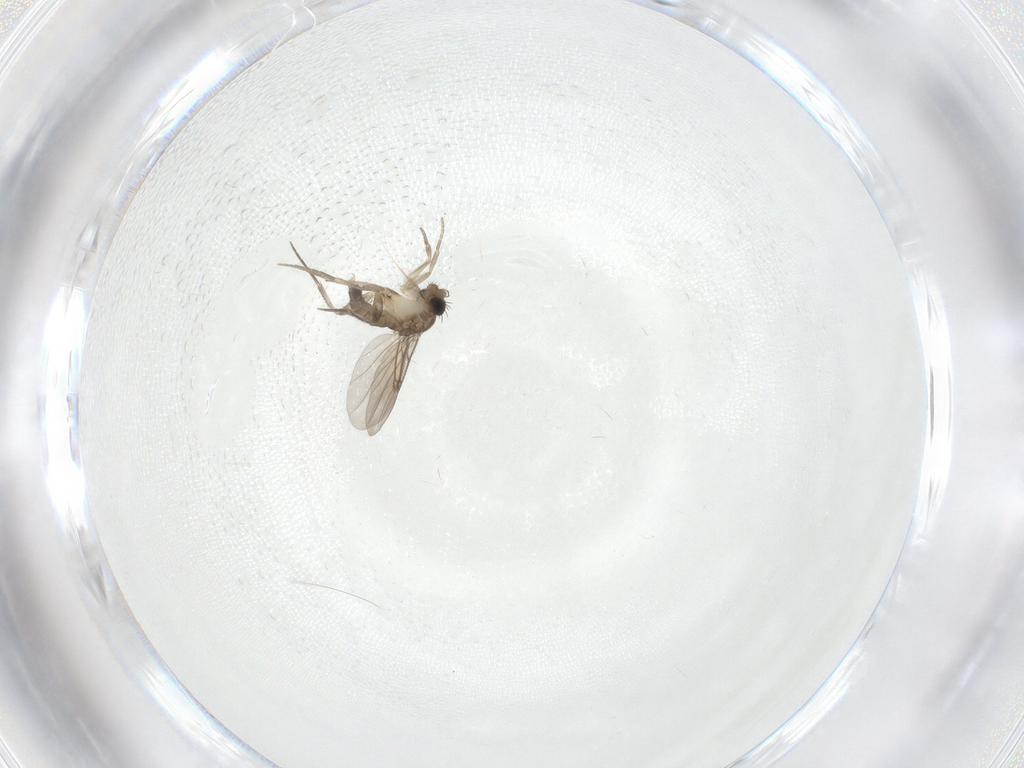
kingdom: Animalia
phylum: Arthropoda
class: Insecta
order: Diptera
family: Phoridae
